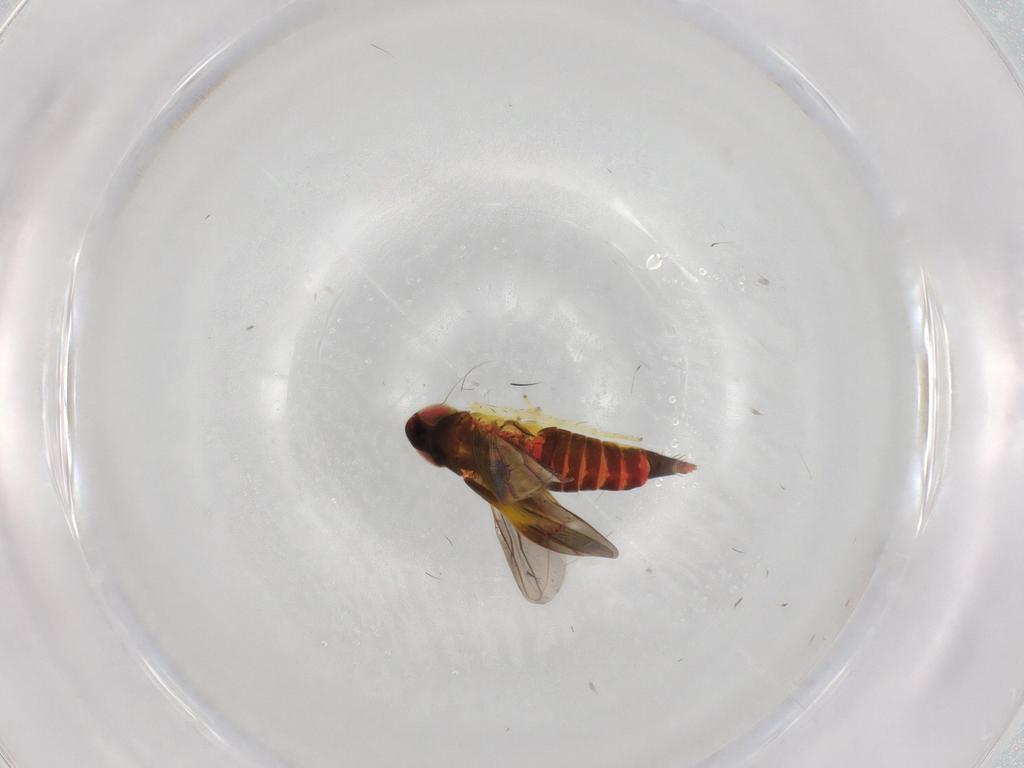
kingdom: Animalia
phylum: Arthropoda
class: Insecta
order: Hemiptera
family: Cicadellidae
